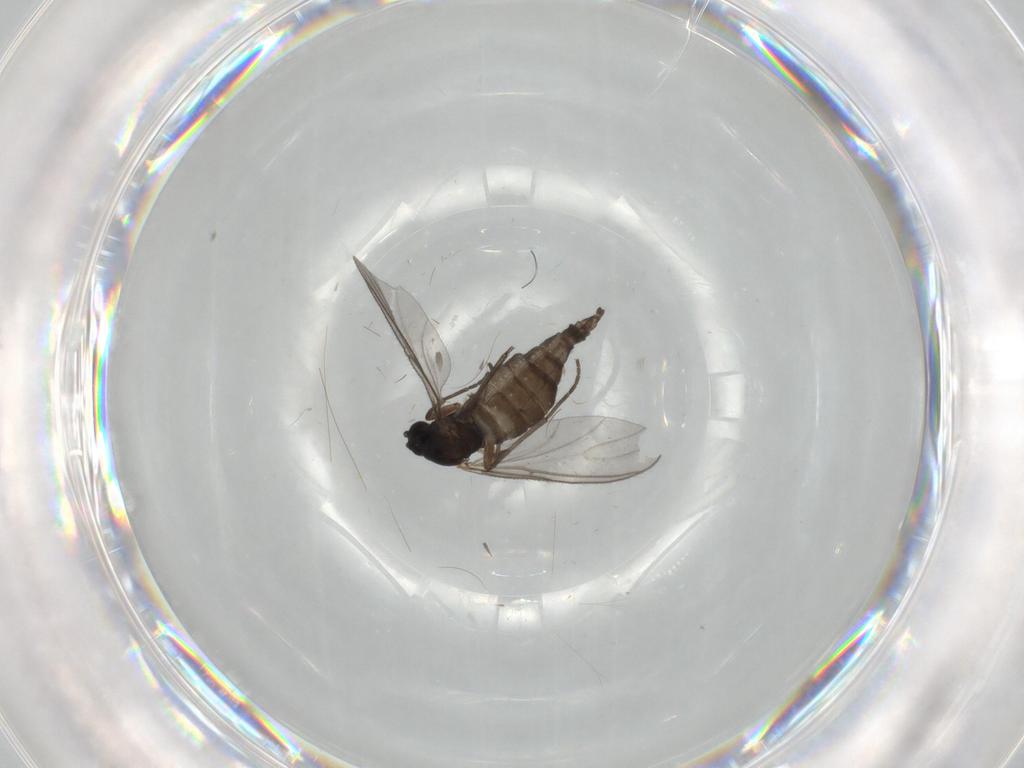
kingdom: Animalia
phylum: Arthropoda
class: Insecta
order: Diptera
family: Sciaridae
